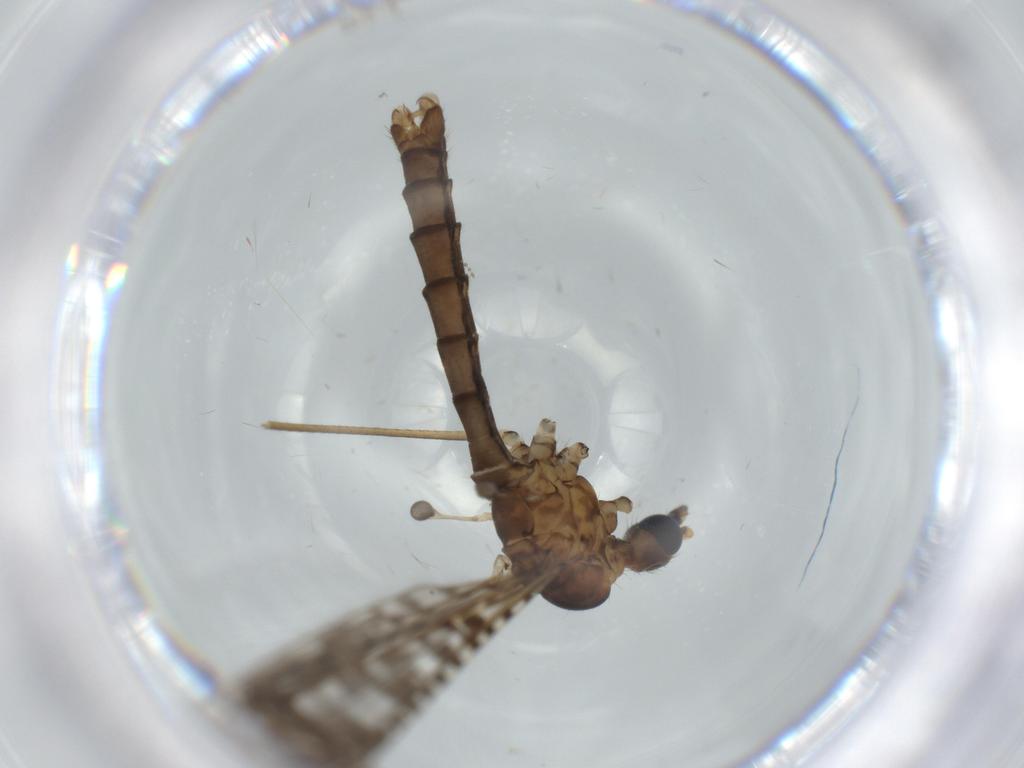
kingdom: Animalia
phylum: Arthropoda
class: Insecta
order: Diptera
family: Sciaridae
